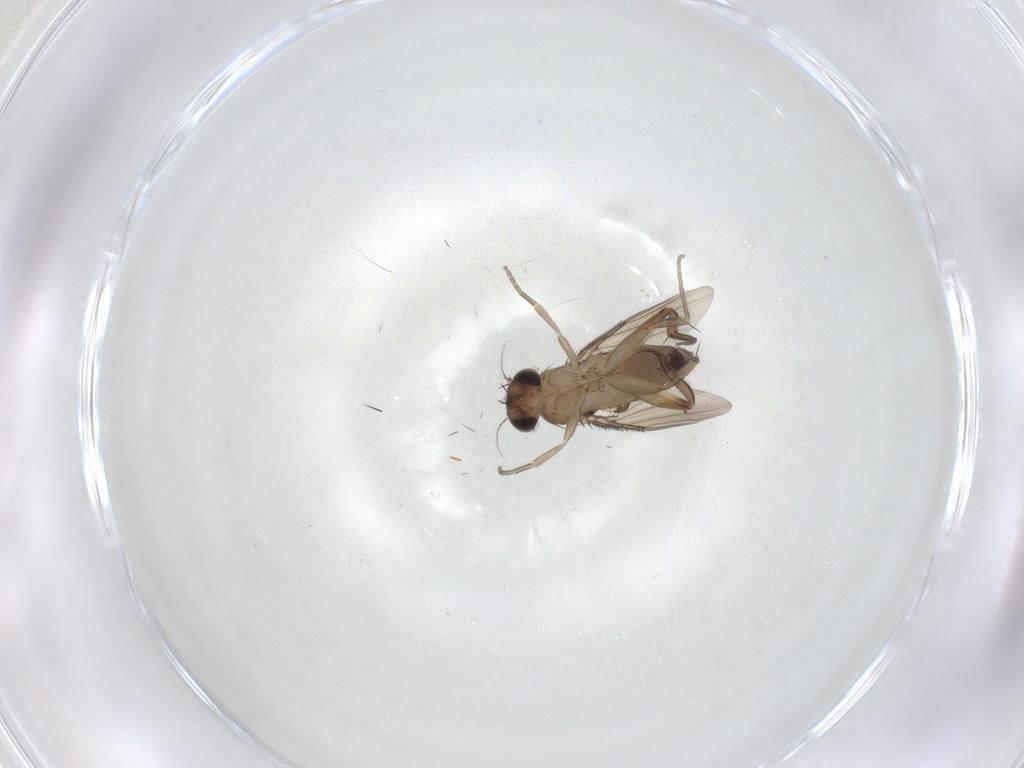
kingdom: Animalia
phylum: Arthropoda
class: Insecta
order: Diptera
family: Phoridae
